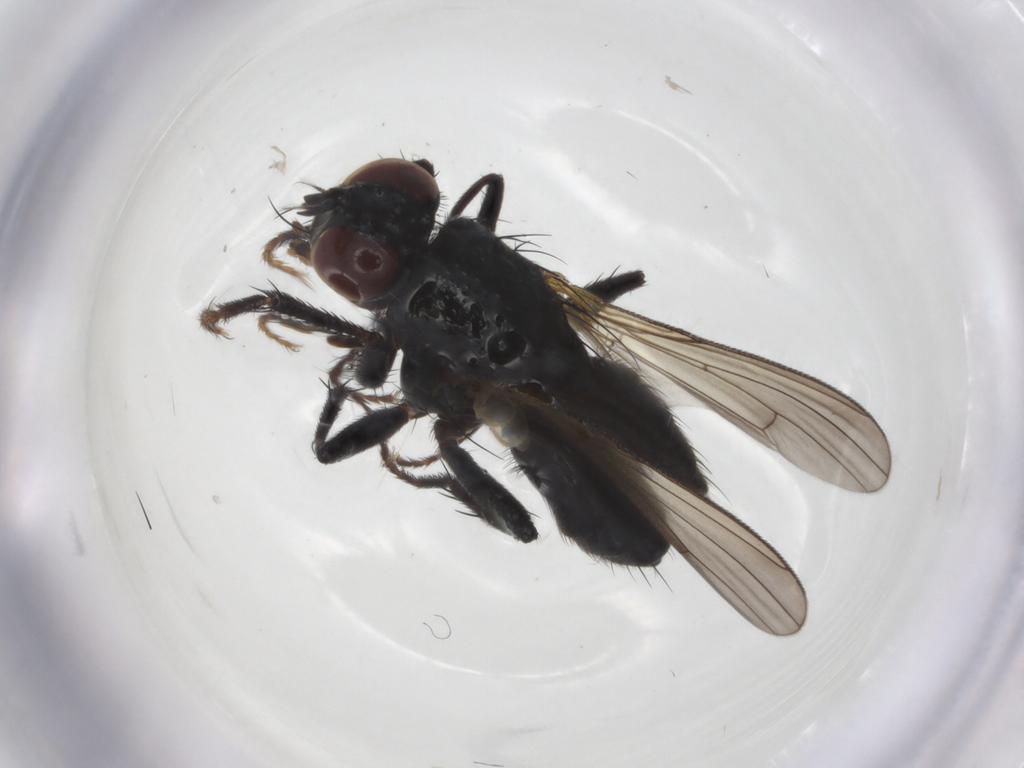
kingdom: Animalia
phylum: Arthropoda
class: Insecta
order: Diptera
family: Muscidae
